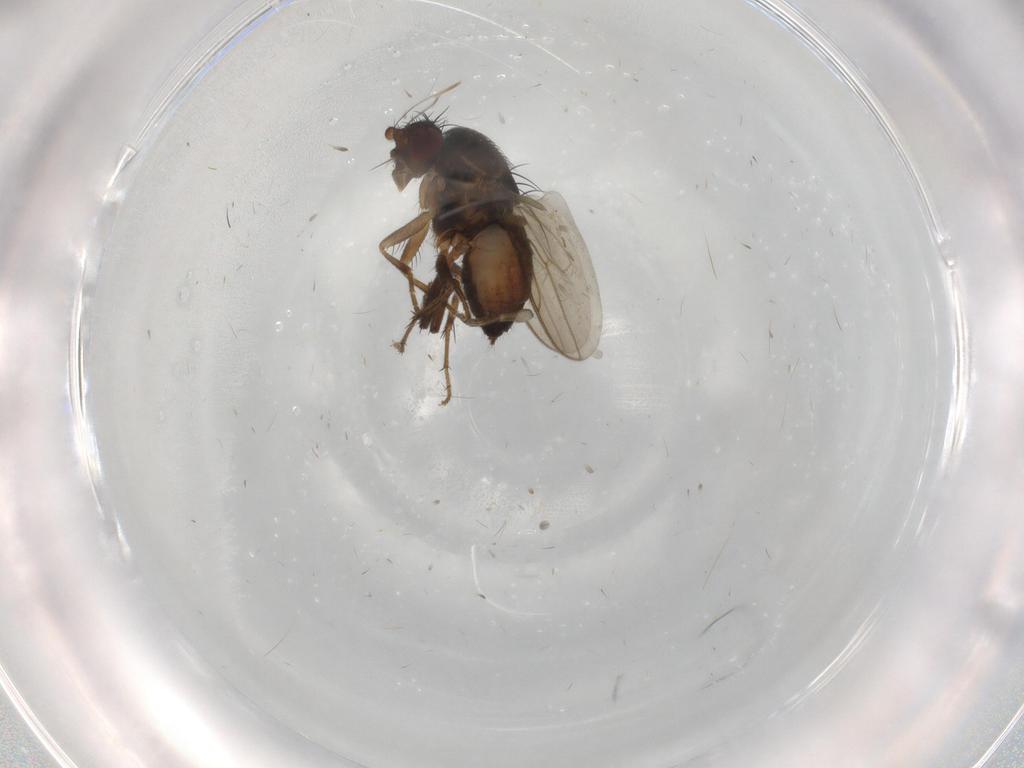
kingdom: Animalia
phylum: Arthropoda
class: Insecta
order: Diptera
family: Phoridae
